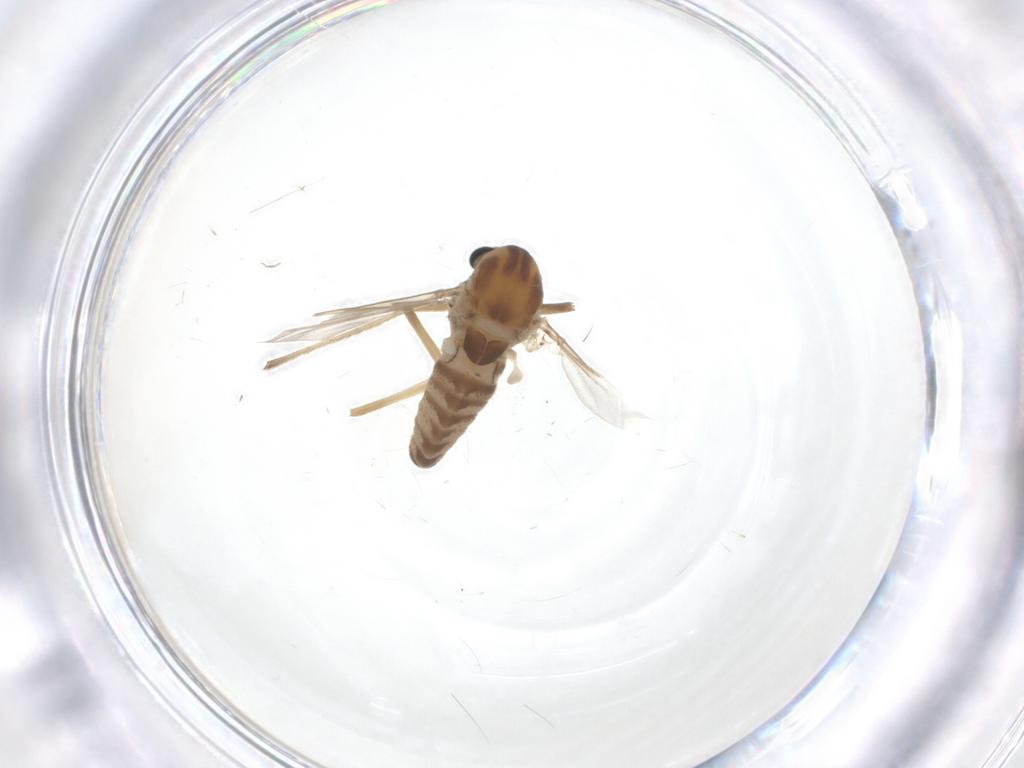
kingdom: Animalia
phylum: Arthropoda
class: Insecta
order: Diptera
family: Chironomidae
